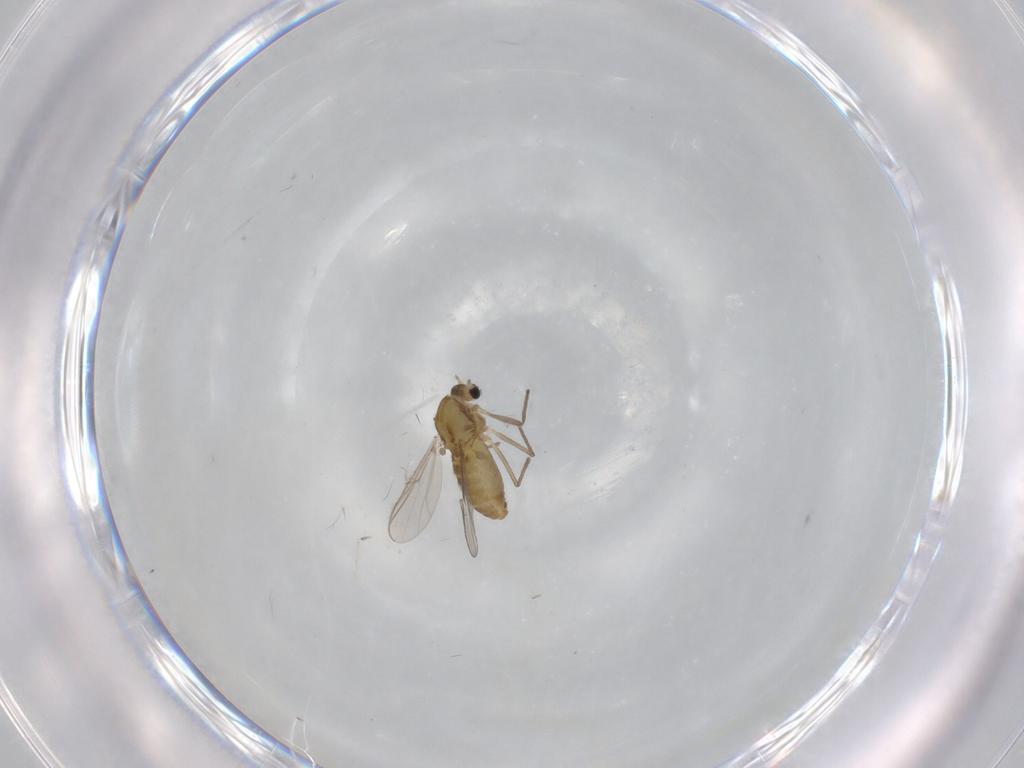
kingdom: Animalia
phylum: Arthropoda
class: Insecta
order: Diptera
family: Chironomidae
